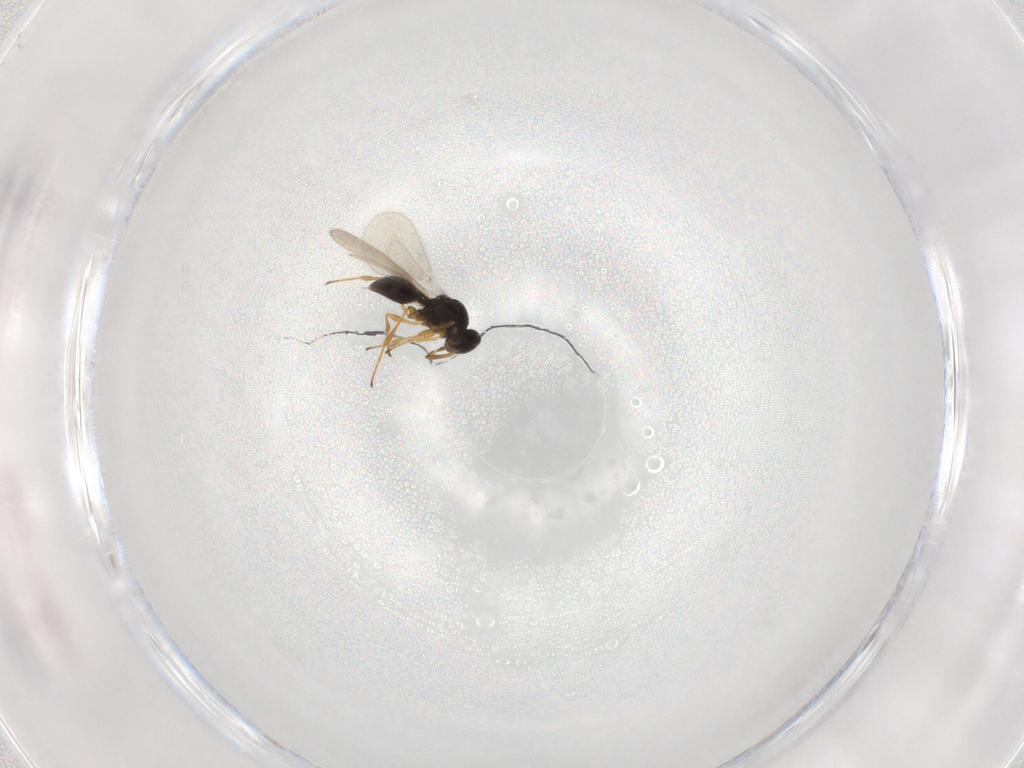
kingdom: Animalia
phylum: Arthropoda
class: Insecta
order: Diptera
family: Mythicomyiidae
